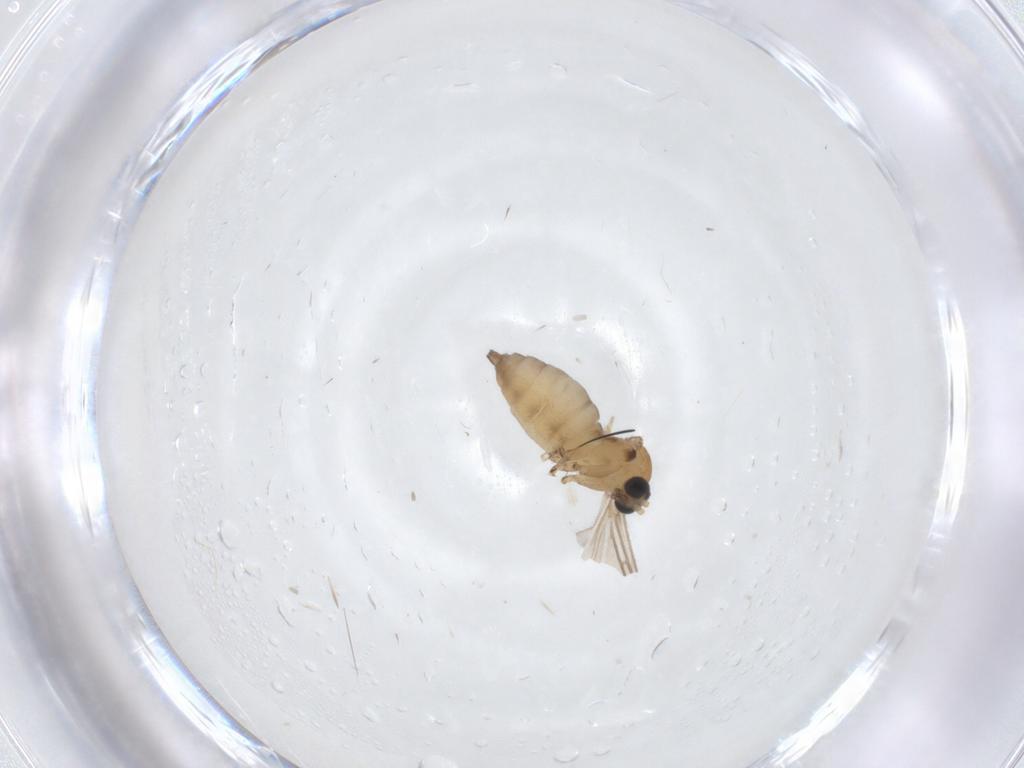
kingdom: Animalia
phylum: Arthropoda
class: Insecta
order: Diptera
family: Sciaridae
